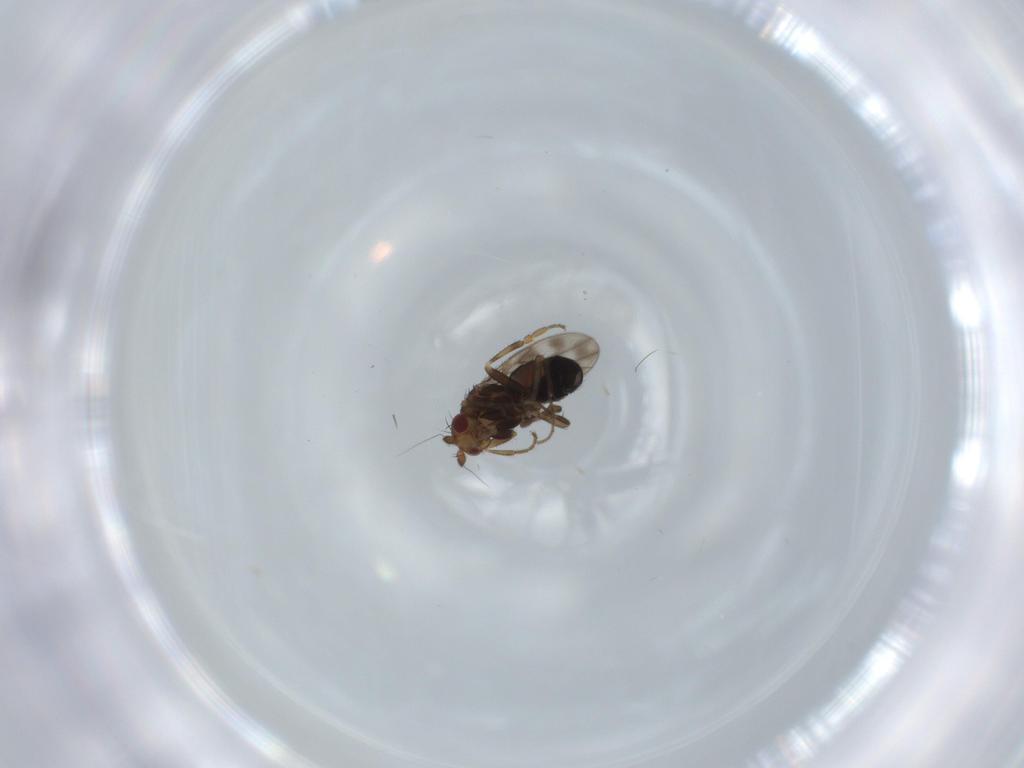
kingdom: Animalia
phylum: Arthropoda
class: Insecta
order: Diptera
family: Sphaeroceridae
